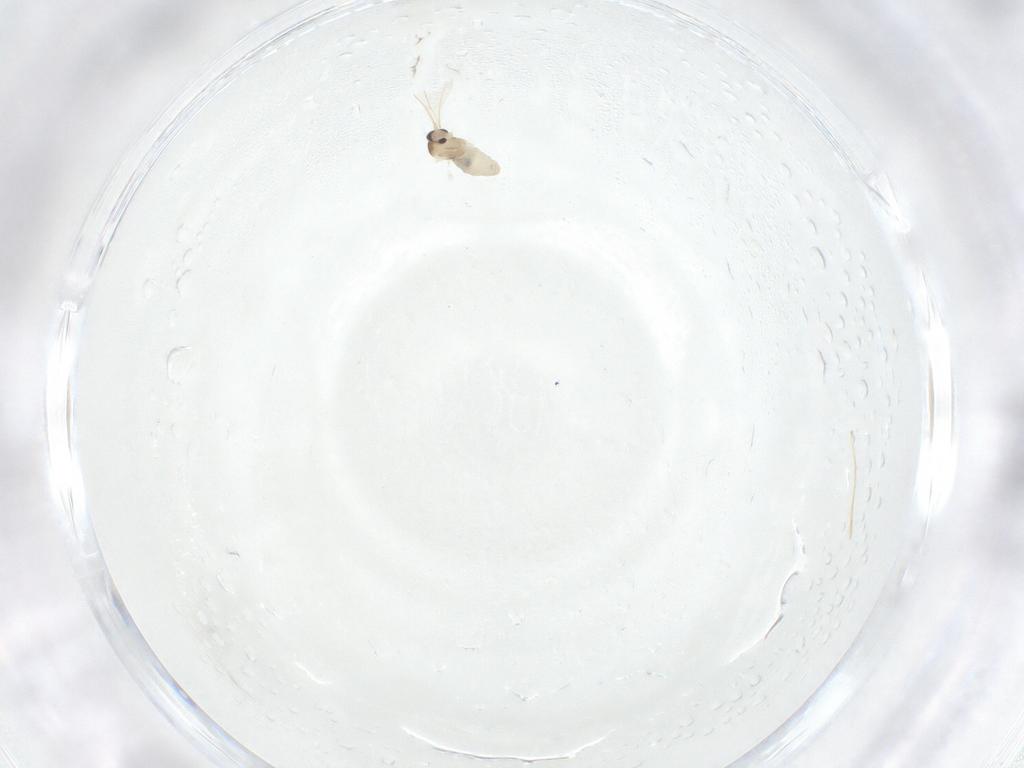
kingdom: Animalia
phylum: Arthropoda
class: Insecta
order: Diptera
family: Cecidomyiidae
